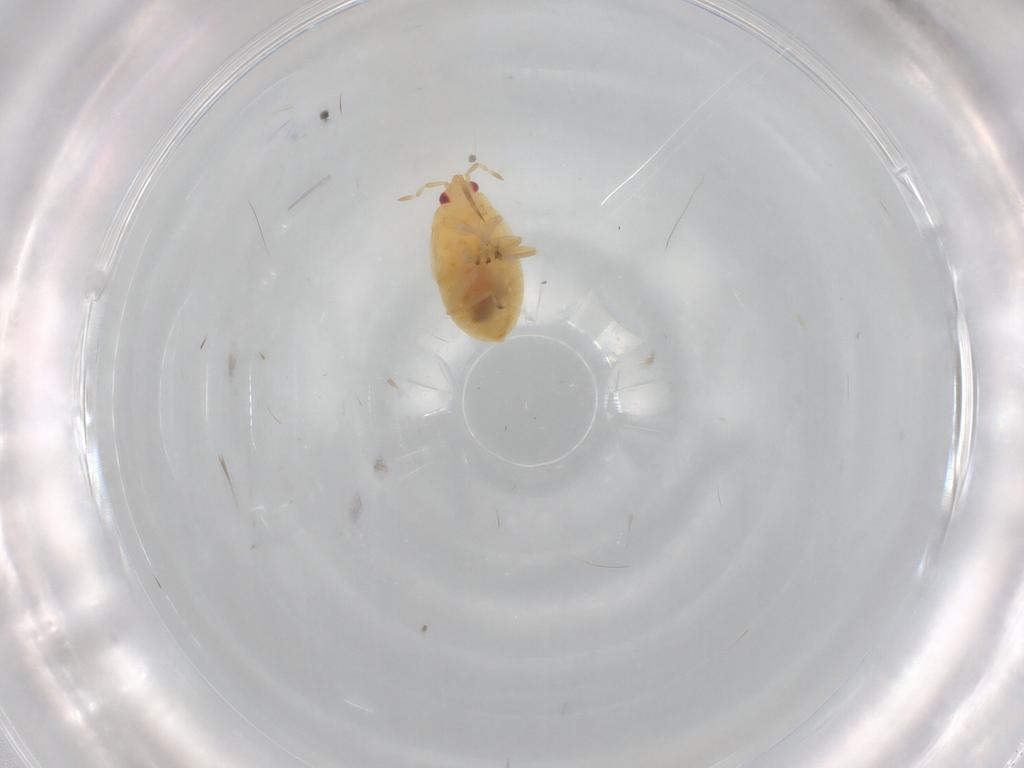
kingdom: Animalia
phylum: Arthropoda
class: Insecta
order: Hemiptera
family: Anthocoridae
